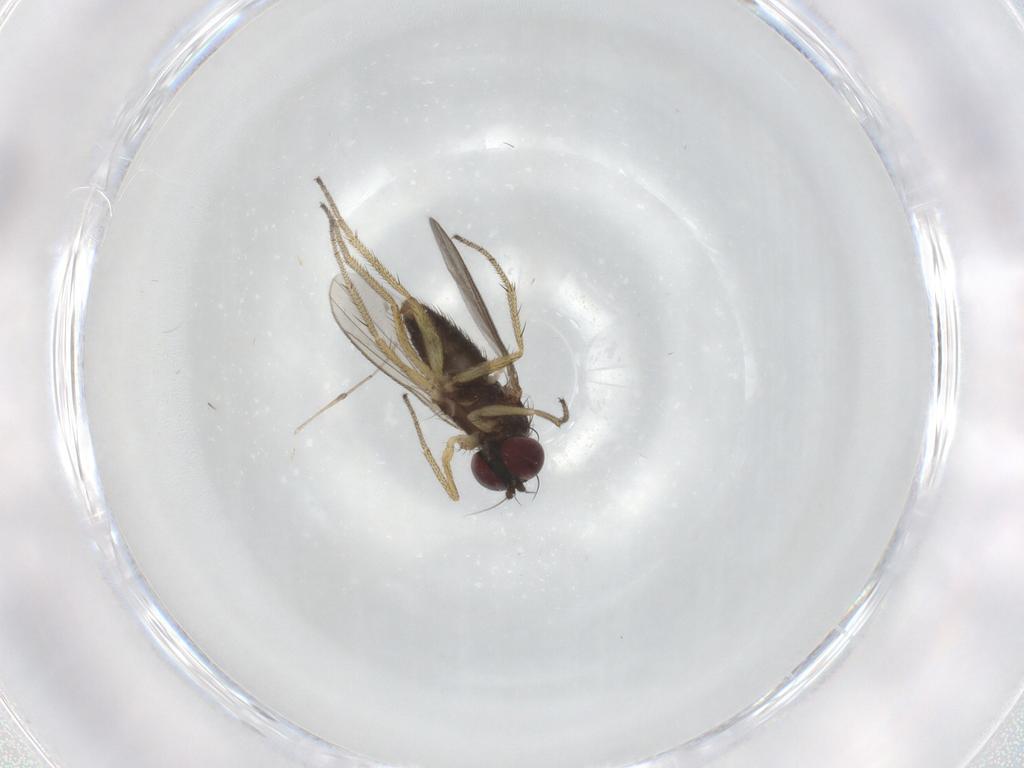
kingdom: Animalia
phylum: Arthropoda
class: Insecta
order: Diptera
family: Dolichopodidae
